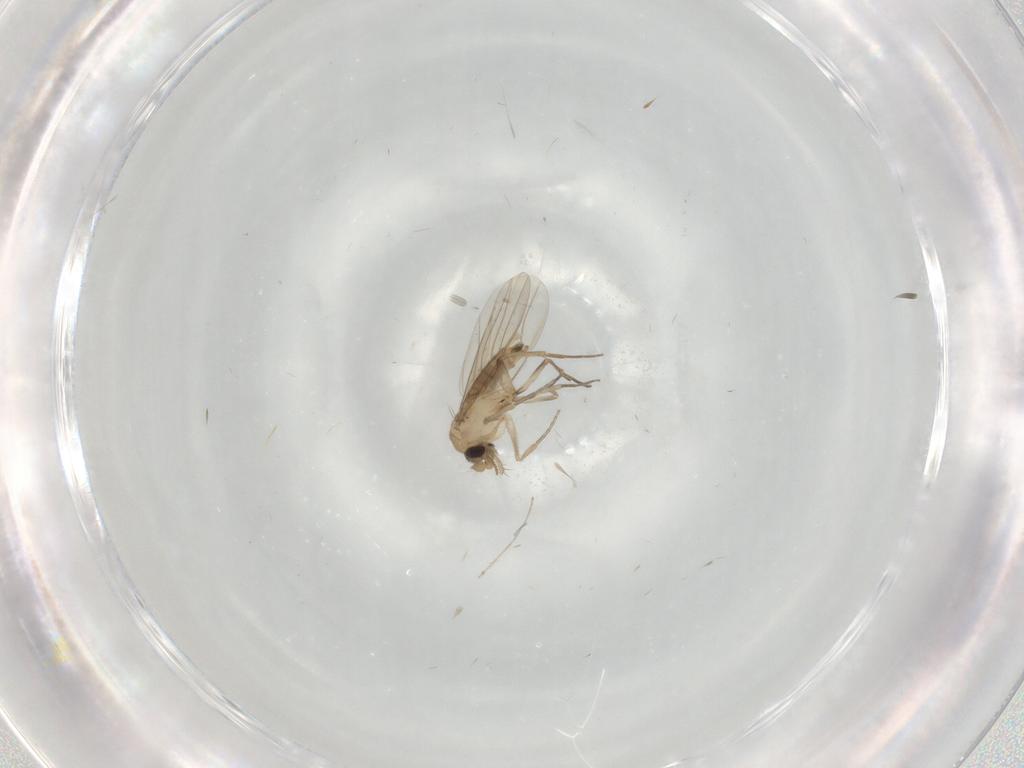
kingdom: Animalia
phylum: Arthropoda
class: Insecta
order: Diptera
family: Phoridae
